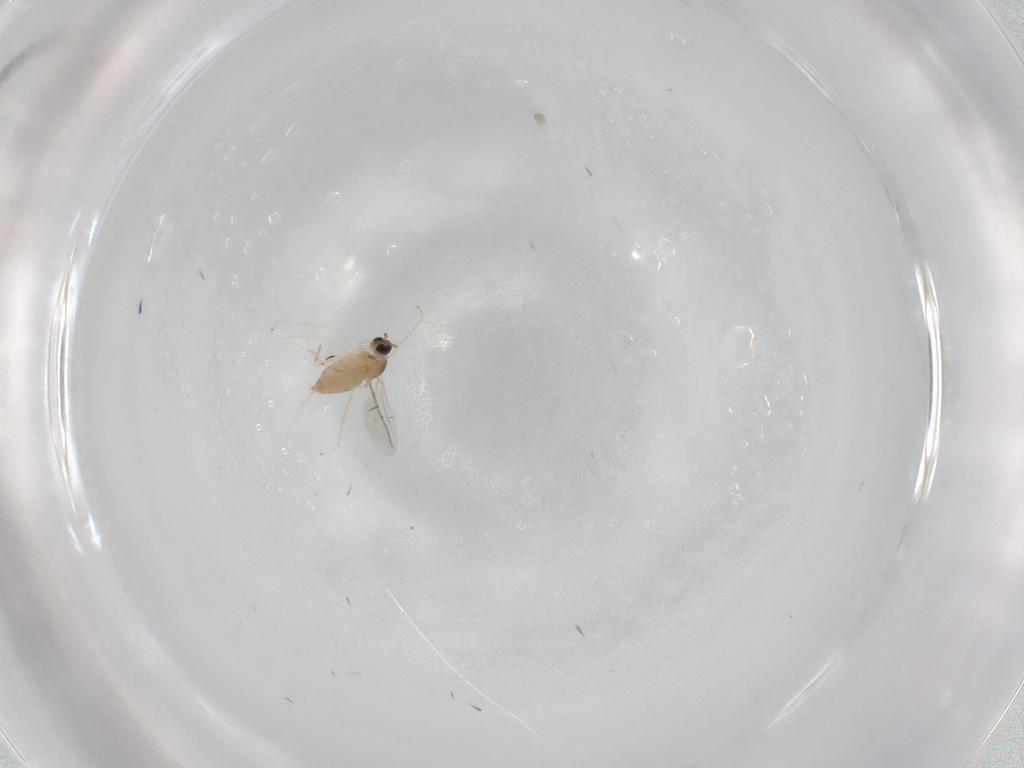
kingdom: Animalia
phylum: Arthropoda
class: Insecta
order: Diptera
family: Cecidomyiidae
